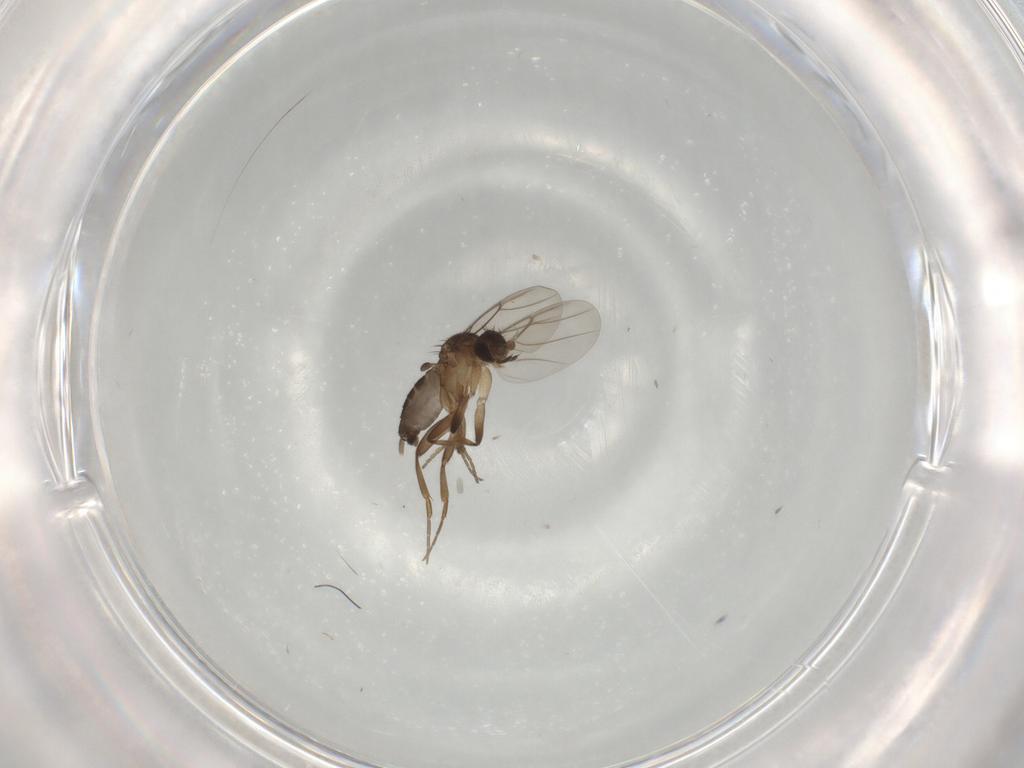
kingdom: Animalia
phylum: Arthropoda
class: Insecta
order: Diptera
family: Phoridae
